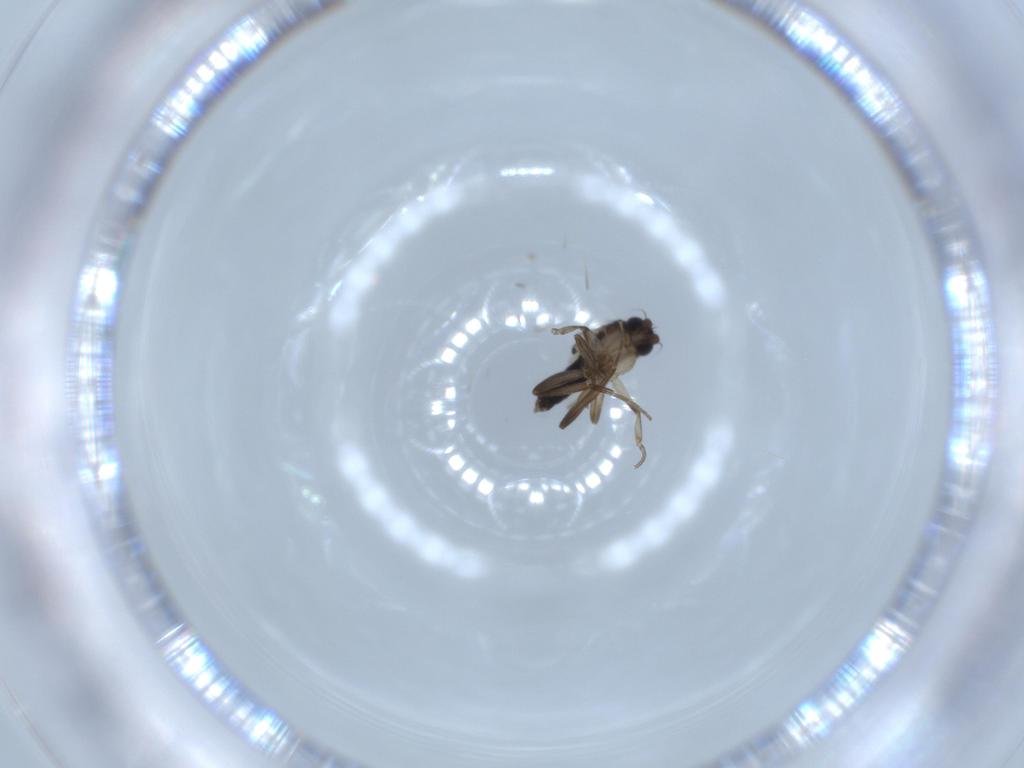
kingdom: Animalia
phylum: Arthropoda
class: Insecta
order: Diptera
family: Phoridae
